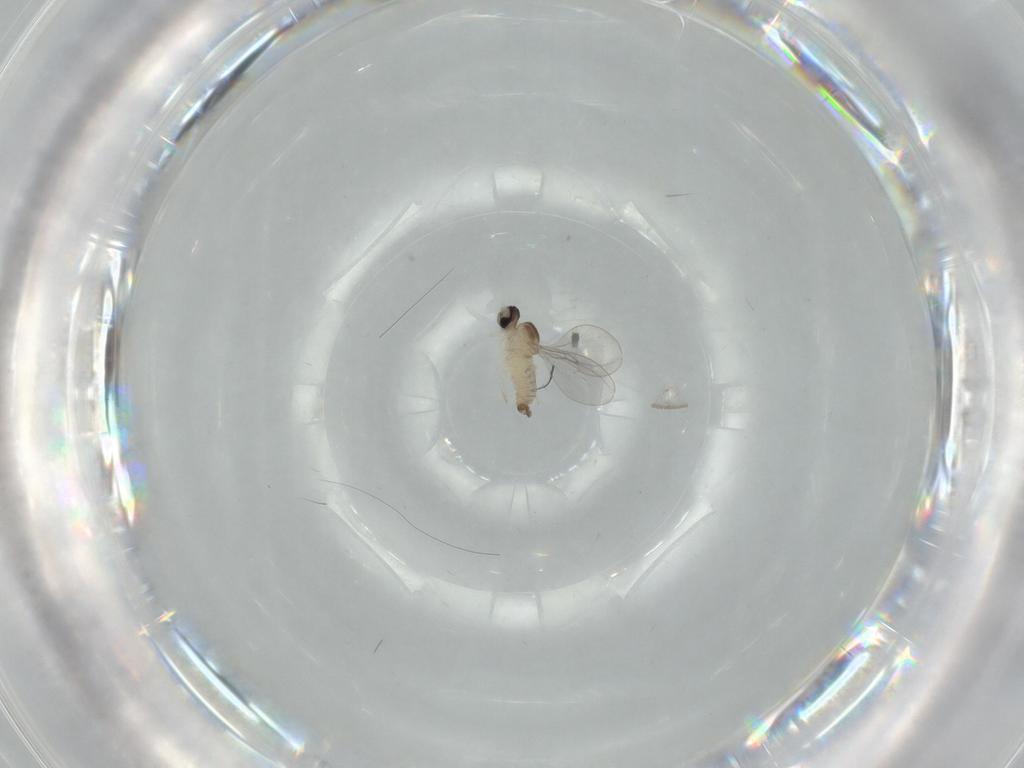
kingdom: Animalia
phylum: Arthropoda
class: Insecta
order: Diptera
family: Cecidomyiidae
